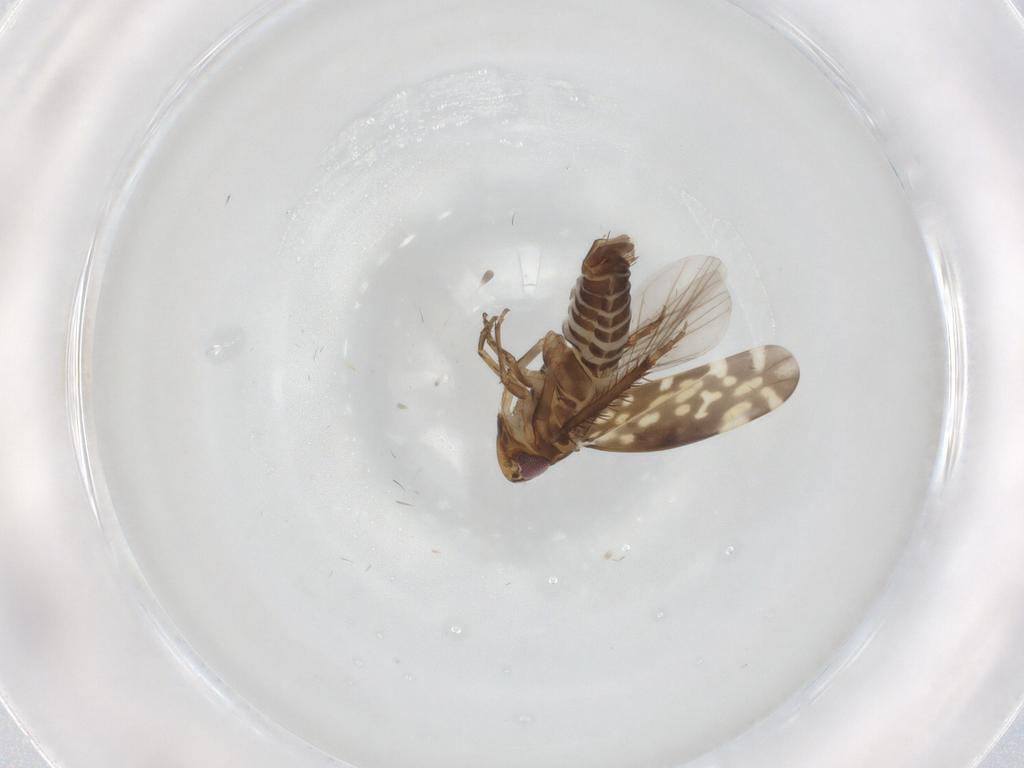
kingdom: Animalia
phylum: Arthropoda
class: Insecta
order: Hemiptera
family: Cicadellidae
